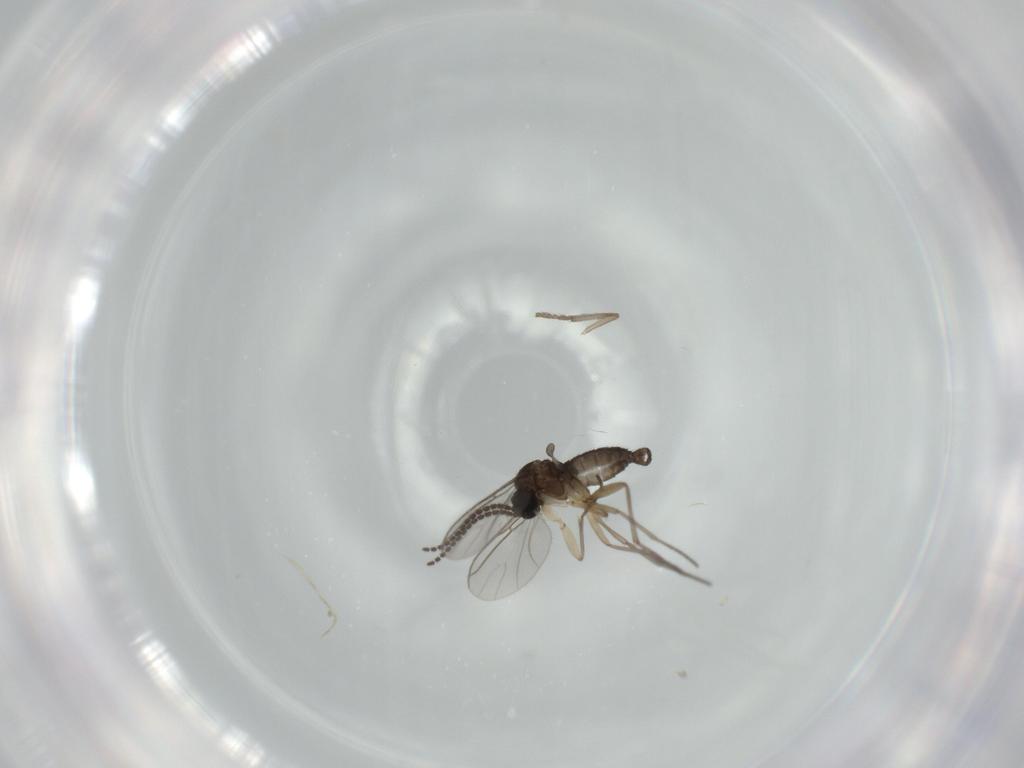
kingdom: Animalia
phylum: Arthropoda
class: Insecta
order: Diptera
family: Sciaridae
